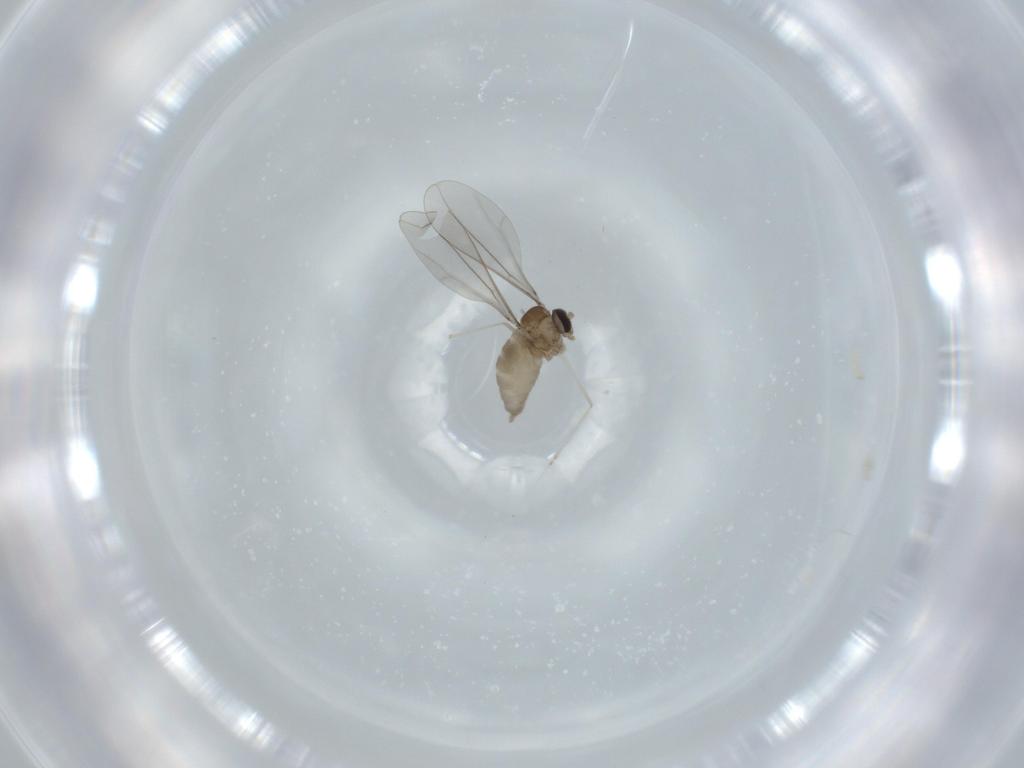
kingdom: Animalia
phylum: Arthropoda
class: Insecta
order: Diptera
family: Cecidomyiidae
